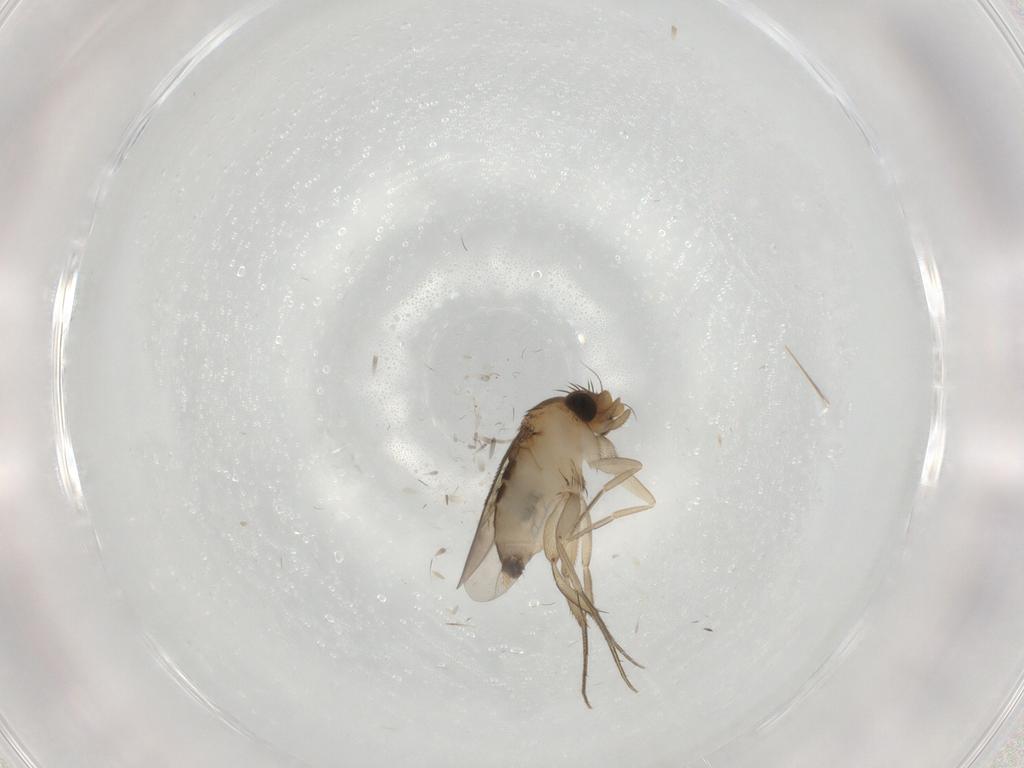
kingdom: Animalia
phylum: Arthropoda
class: Insecta
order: Diptera
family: Phoridae
